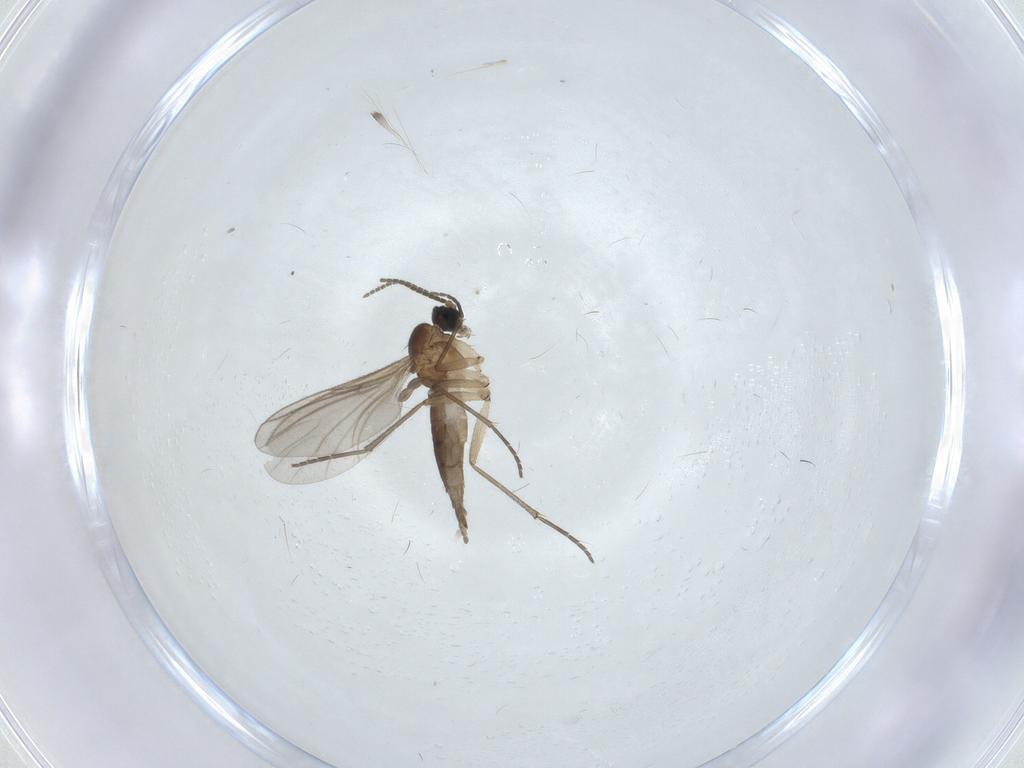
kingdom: Animalia
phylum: Arthropoda
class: Insecta
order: Diptera
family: Sciaridae
